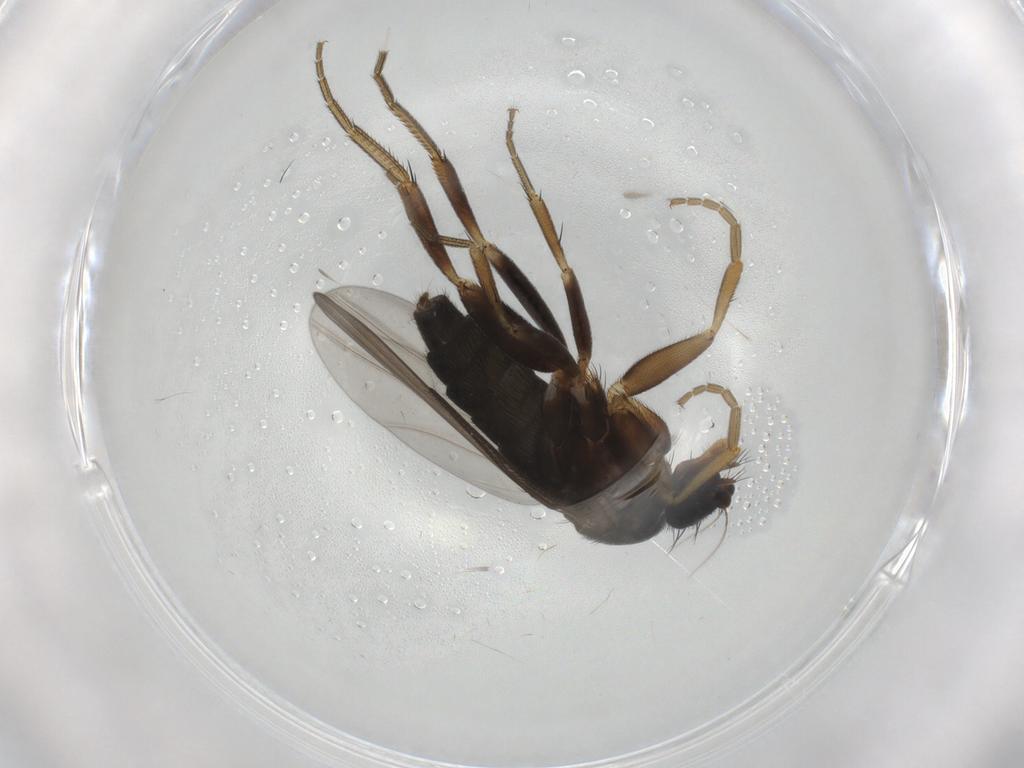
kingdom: Animalia
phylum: Arthropoda
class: Insecta
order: Diptera
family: Phoridae
